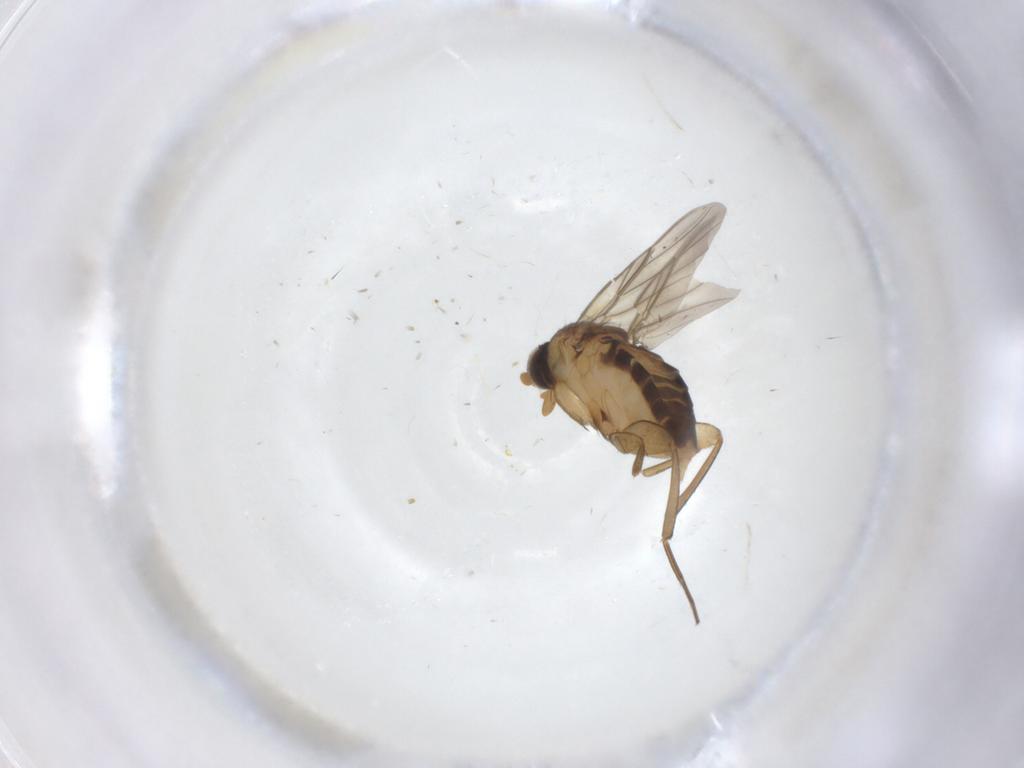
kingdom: Animalia
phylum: Arthropoda
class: Insecta
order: Diptera
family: Phoridae
